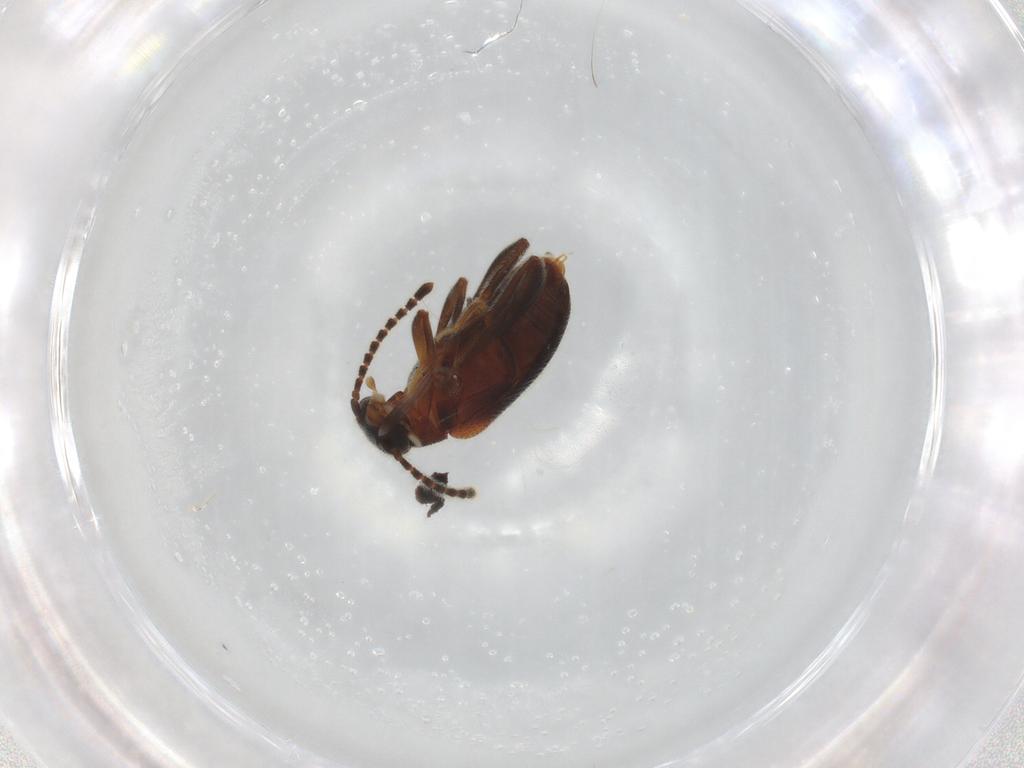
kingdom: Animalia
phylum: Arthropoda
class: Insecta
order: Coleoptera
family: Aderidae
